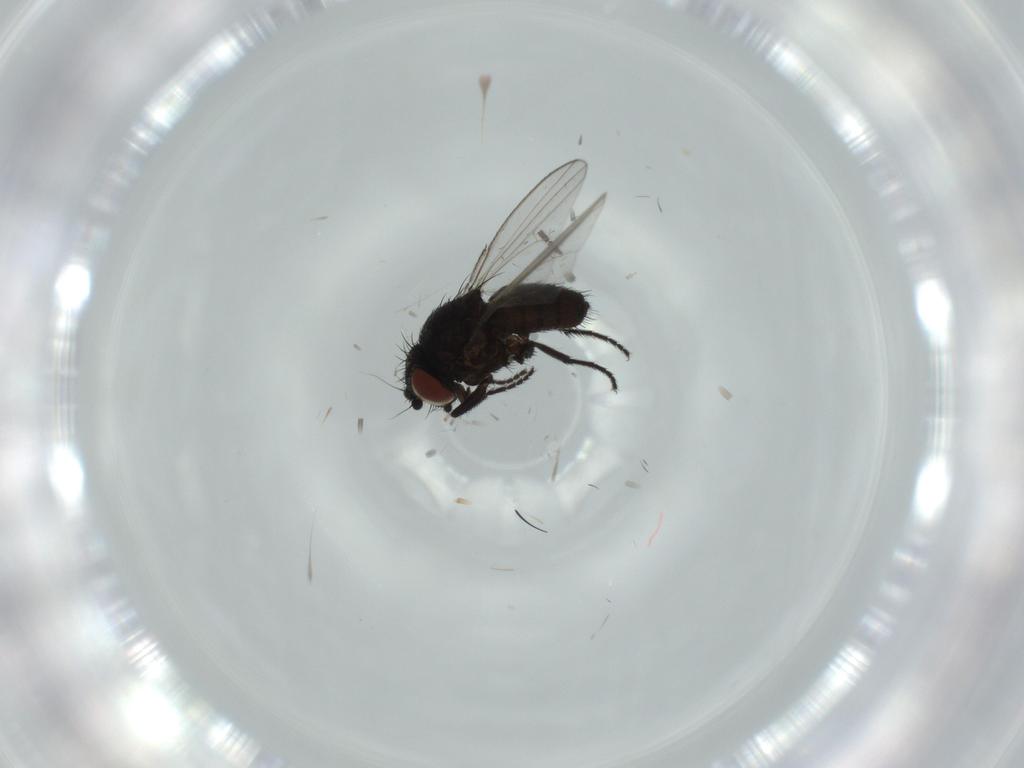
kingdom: Animalia
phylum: Arthropoda
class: Insecta
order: Diptera
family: Sciaridae
